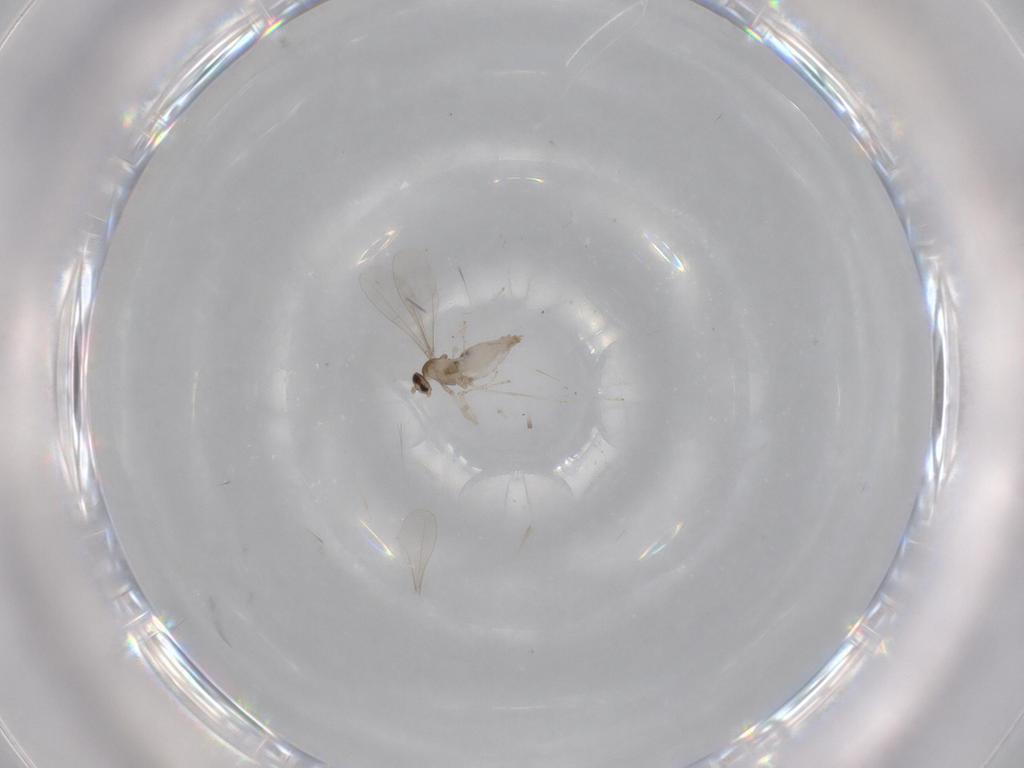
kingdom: Animalia
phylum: Arthropoda
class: Insecta
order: Diptera
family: Cecidomyiidae
